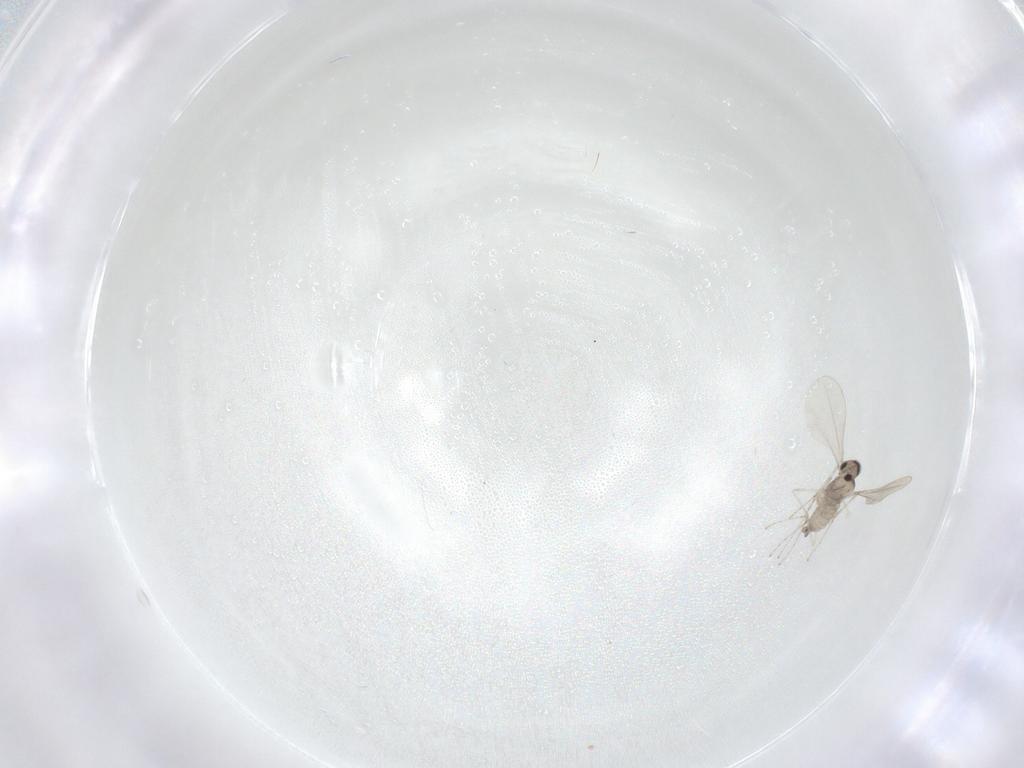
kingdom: Animalia
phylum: Arthropoda
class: Insecta
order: Diptera
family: Cecidomyiidae
